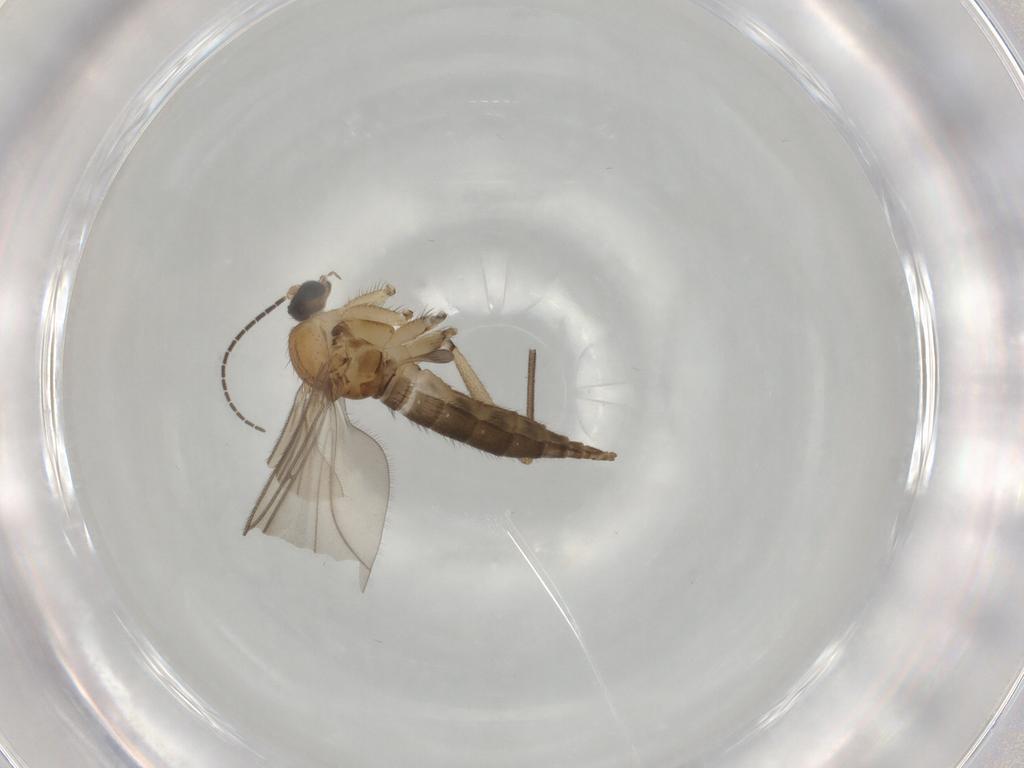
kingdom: Animalia
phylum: Arthropoda
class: Insecta
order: Diptera
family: Sciaridae
